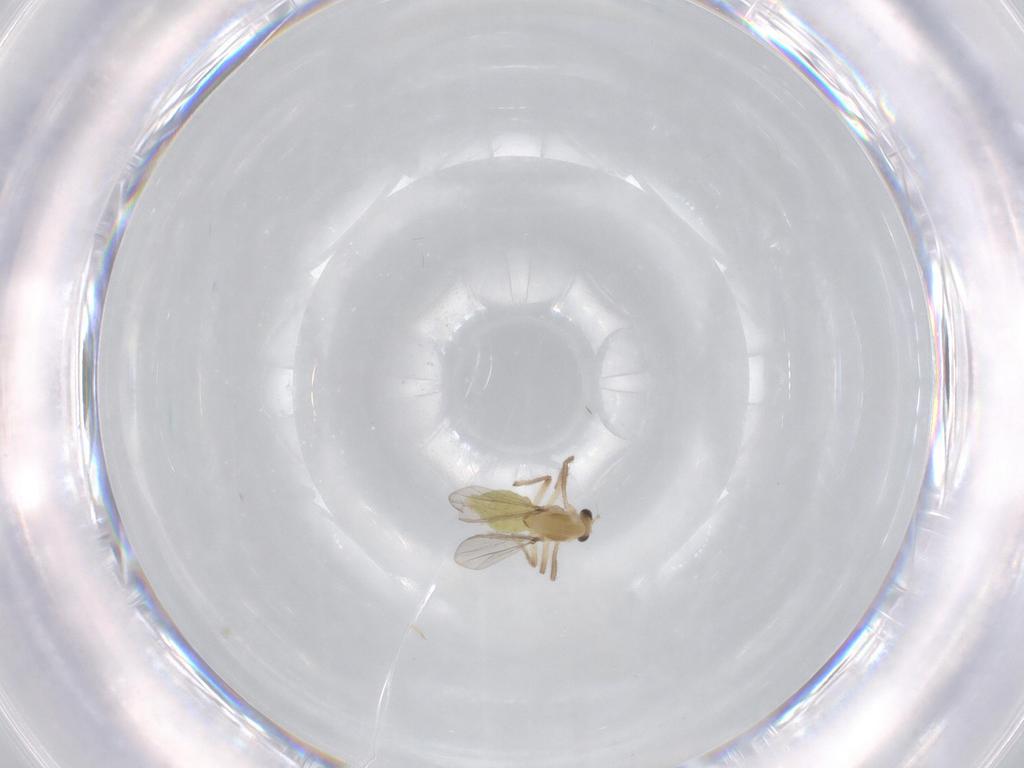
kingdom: Animalia
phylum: Arthropoda
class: Insecta
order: Diptera
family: Chironomidae
